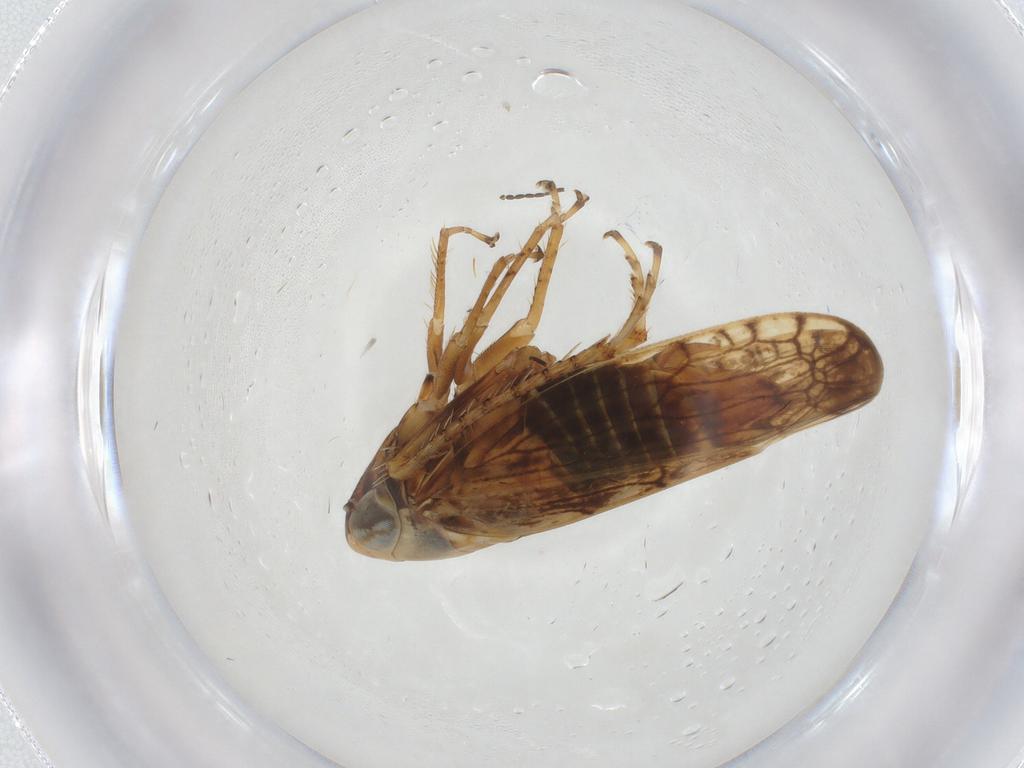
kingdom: Animalia
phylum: Arthropoda
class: Insecta
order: Hemiptera
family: Cicadellidae
